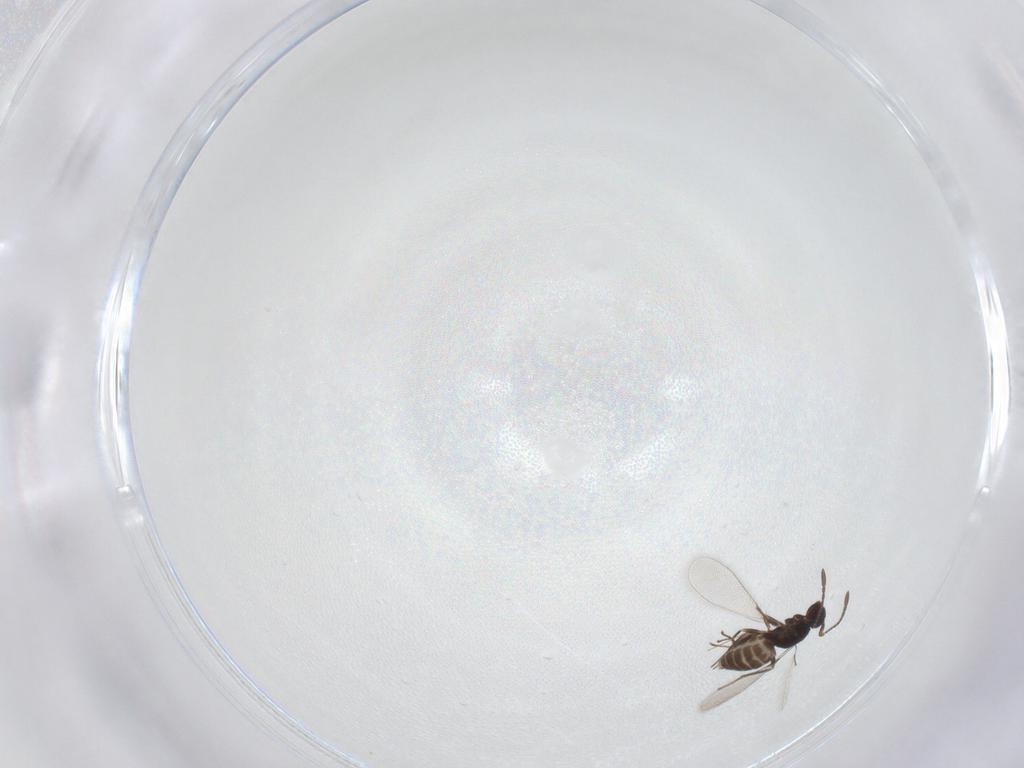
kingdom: Animalia
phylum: Arthropoda
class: Insecta
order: Hymenoptera
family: Mymaridae
